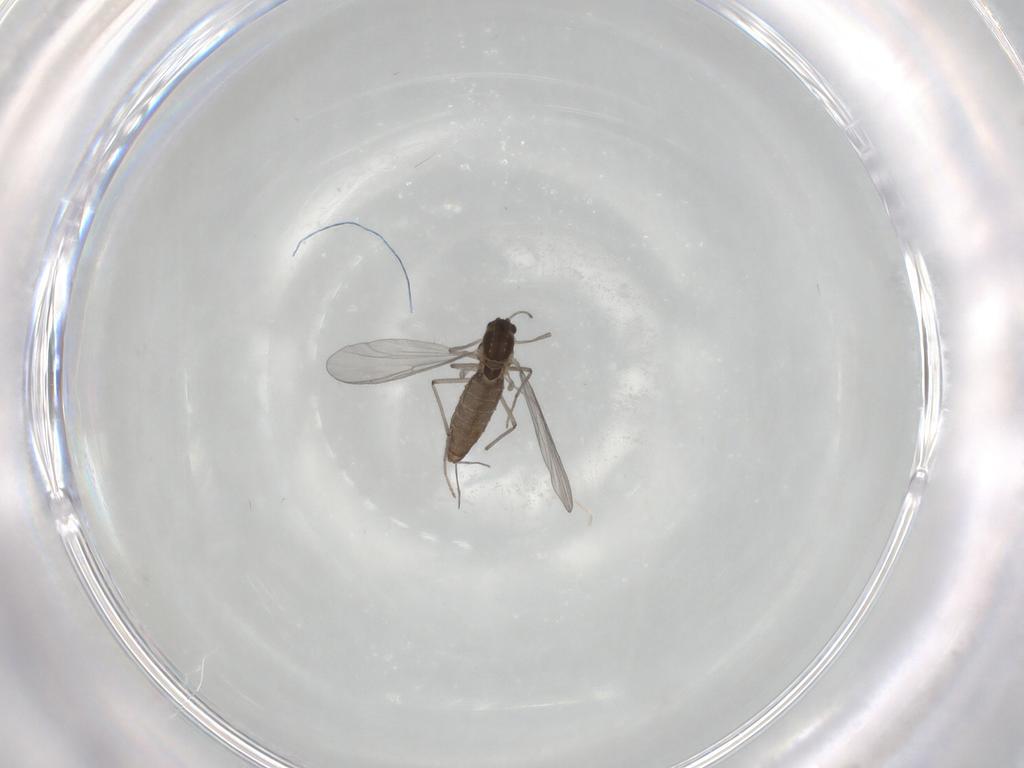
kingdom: Animalia
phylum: Arthropoda
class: Insecta
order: Diptera
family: Chironomidae
